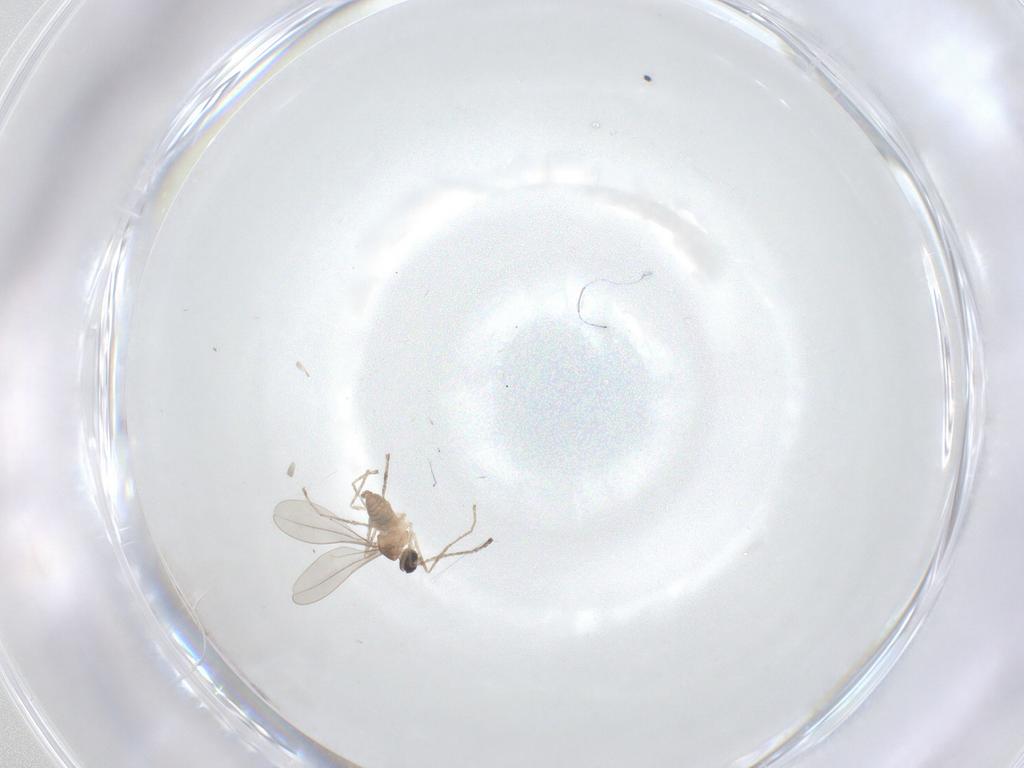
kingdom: Animalia
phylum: Arthropoda
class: Insecta
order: Diptera
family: Cecidomyiidae
